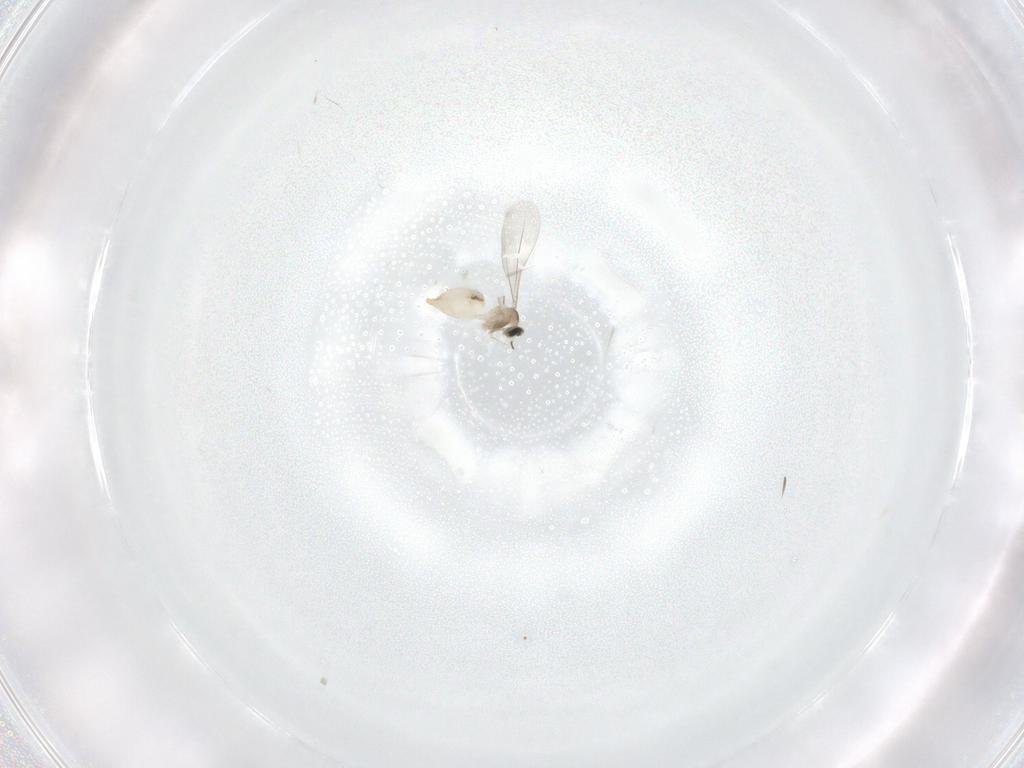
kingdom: Animalia
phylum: Arthropoda
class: Insecta
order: Diptera
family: Cecidomyiidae
